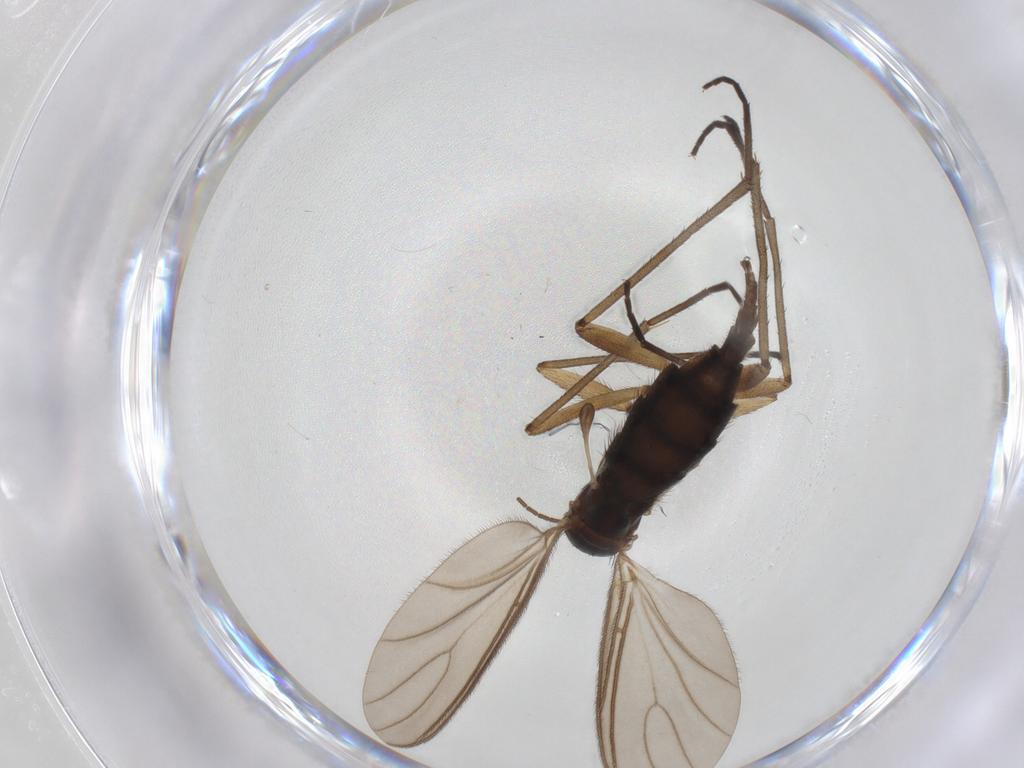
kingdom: Animalia
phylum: Arthropoda
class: Insecta
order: Diptera
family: Sciaridae
